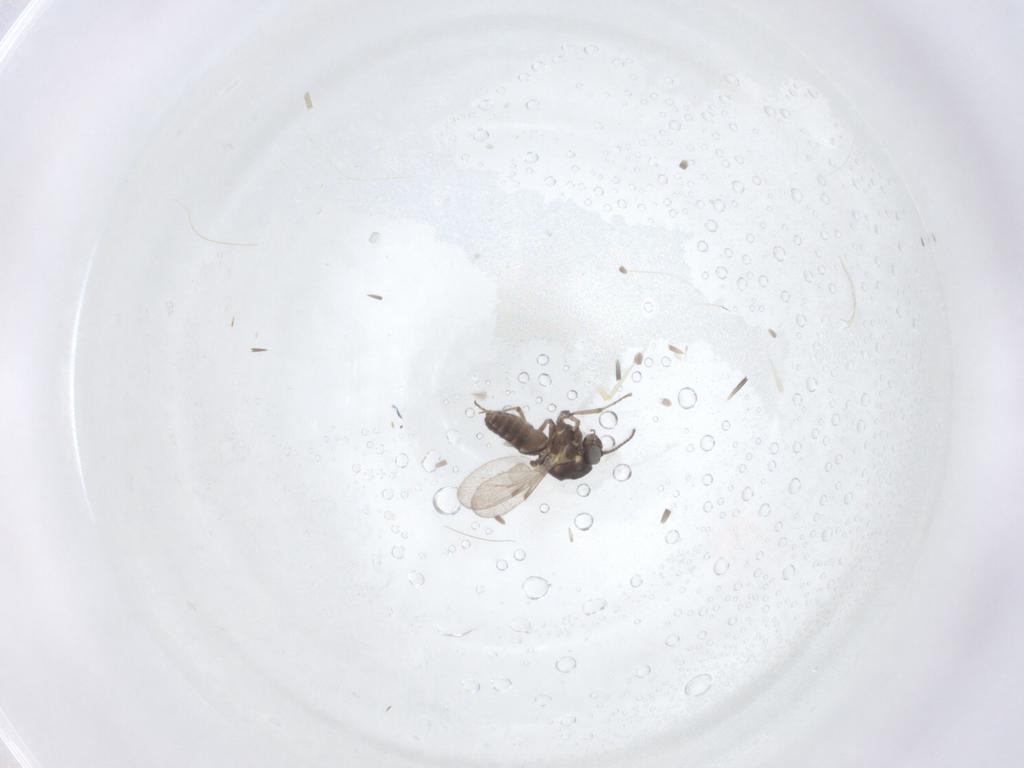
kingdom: Animalia
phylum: Arthropoda
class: Insecta
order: Diptera
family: Ceratopogonidae
